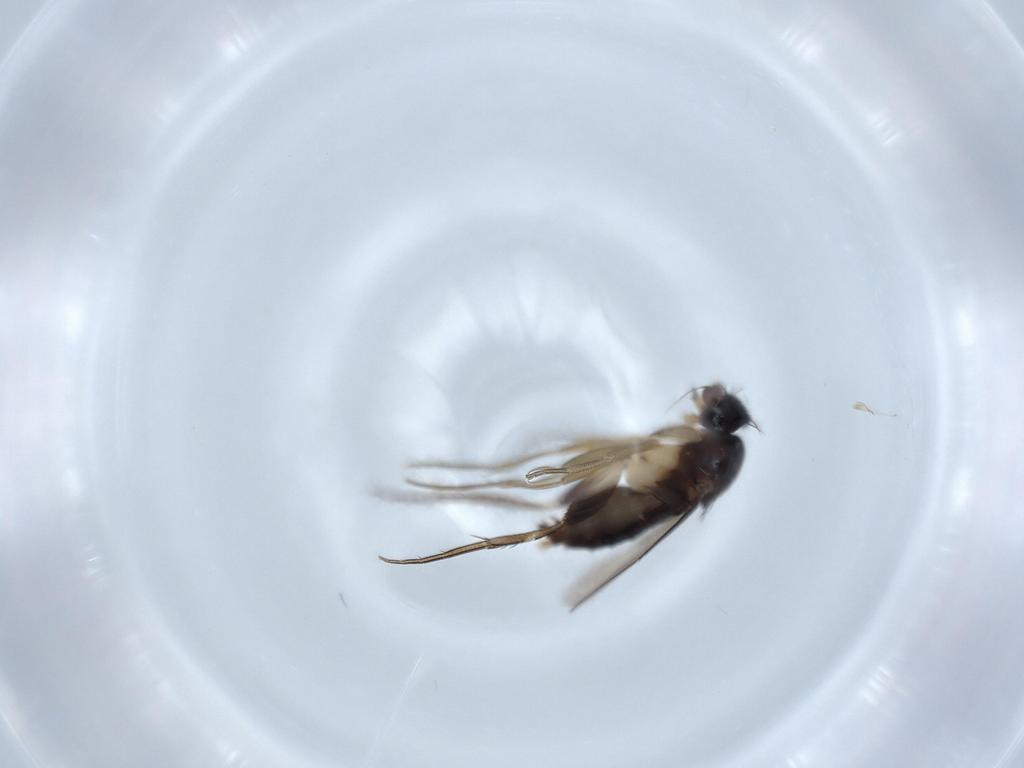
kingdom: Animalia
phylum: Arthropoda
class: Insecta
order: Diptera
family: Phoridae
